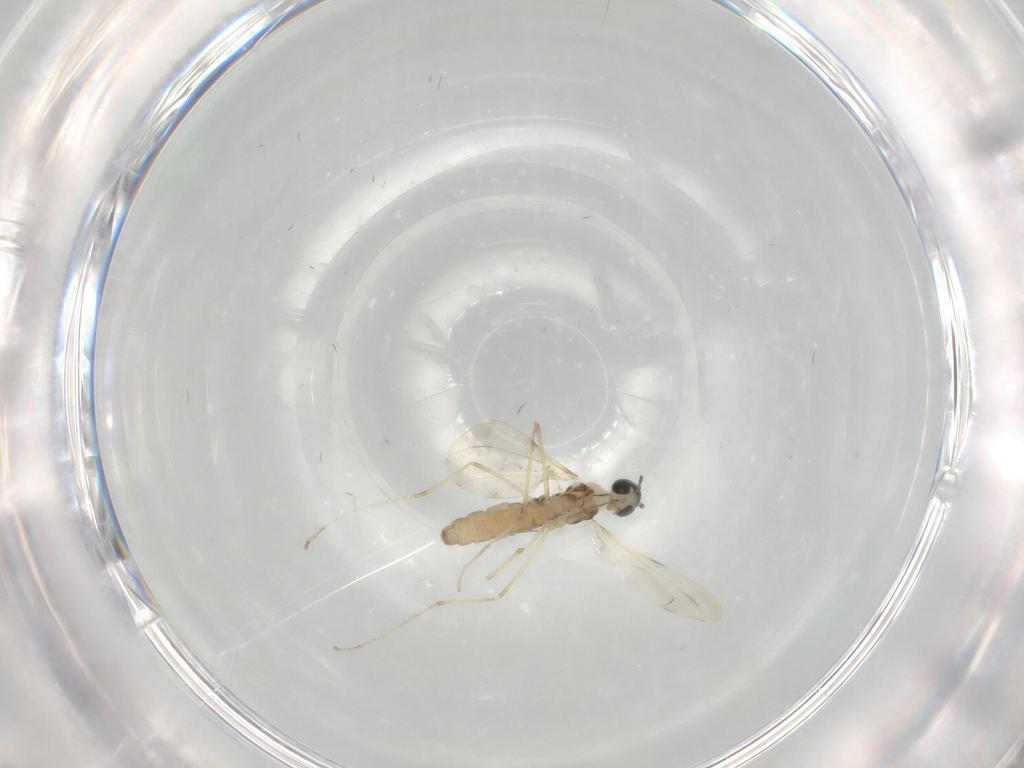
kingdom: Animalia
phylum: Arthropoda
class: Insecta
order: Diptera
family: Cecidomyiidae
